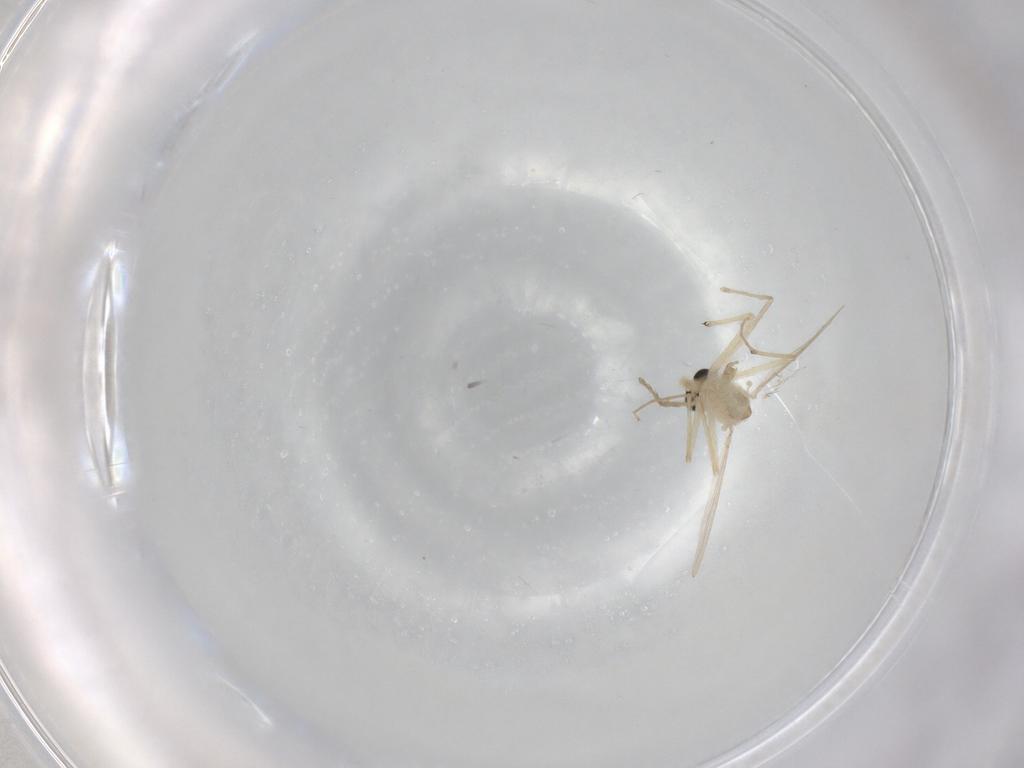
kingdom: Animalia
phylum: Arthropoda
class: Insecta
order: Diptera
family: Chironomidae
